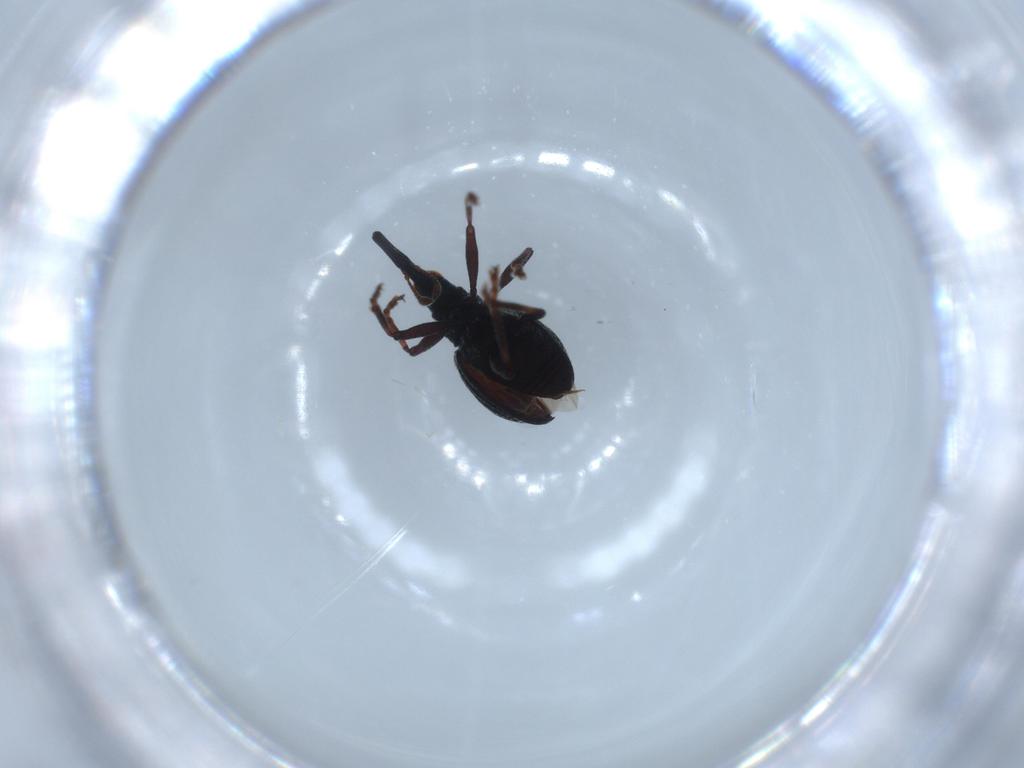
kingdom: Animalia
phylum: Arthropoda
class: Insecta
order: Coleoptera
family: Brentidae
